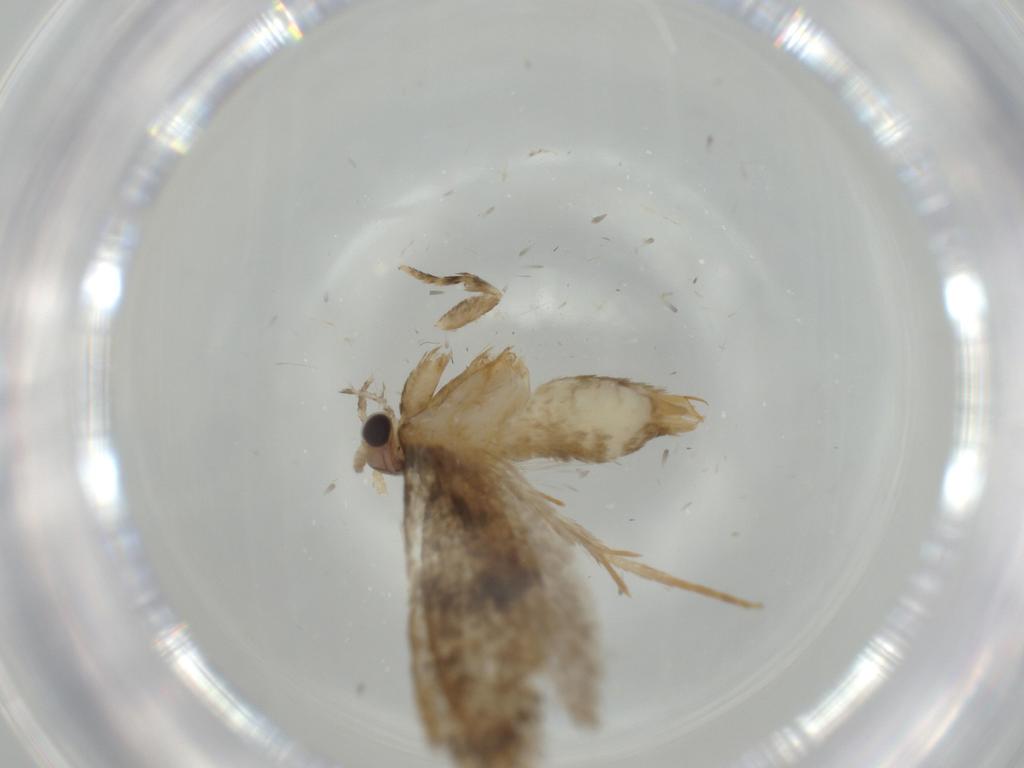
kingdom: Animalia
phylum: Arthropoda
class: Insecta
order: Lepidoptera
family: Tineidae
